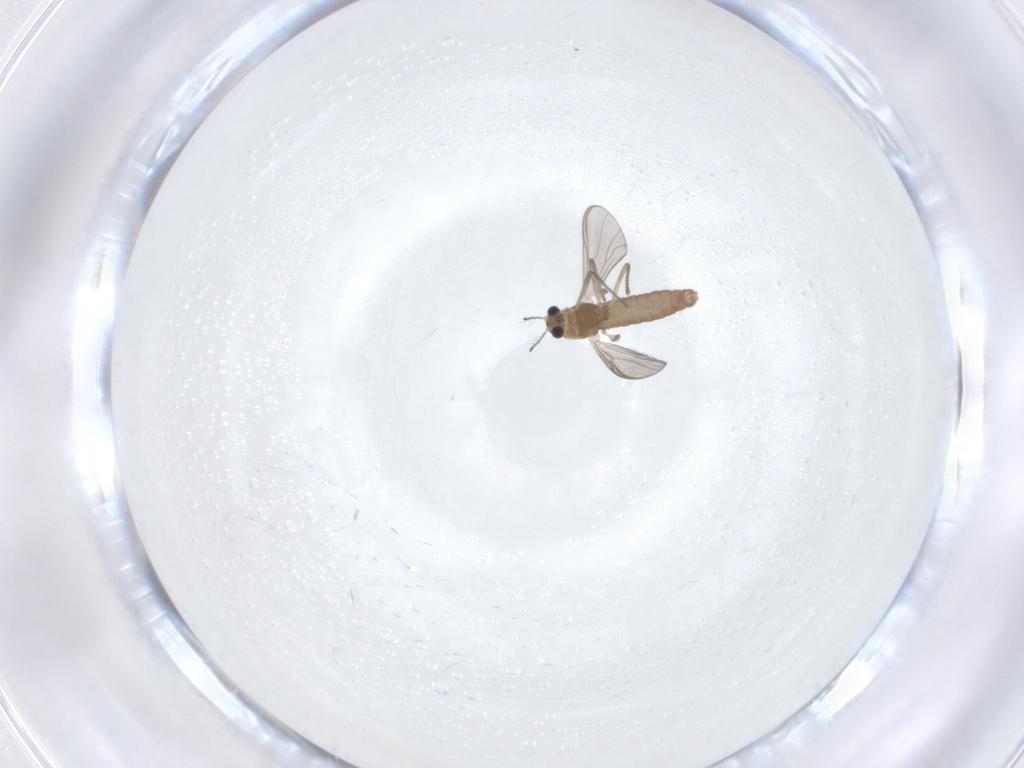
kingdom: Animalia
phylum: Arthropoda
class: Insecta
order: Diptera
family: Chironomidae
